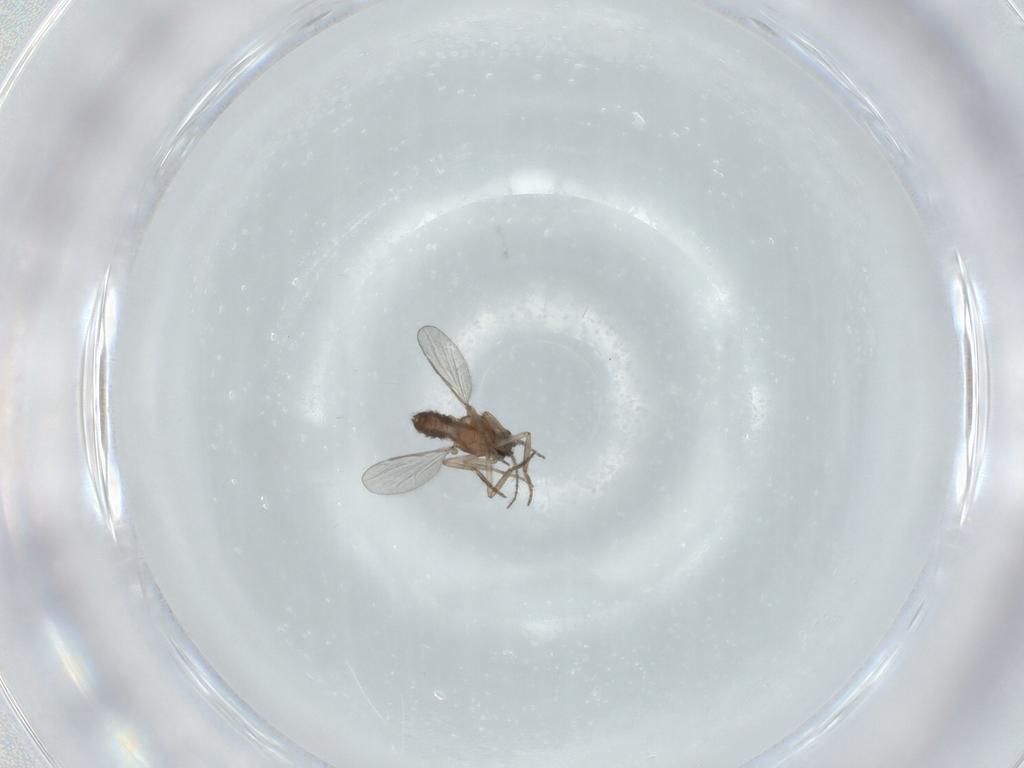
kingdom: Animalia
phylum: Arthropoda
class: Insecta
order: Diptera
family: Ceratopogonidae
